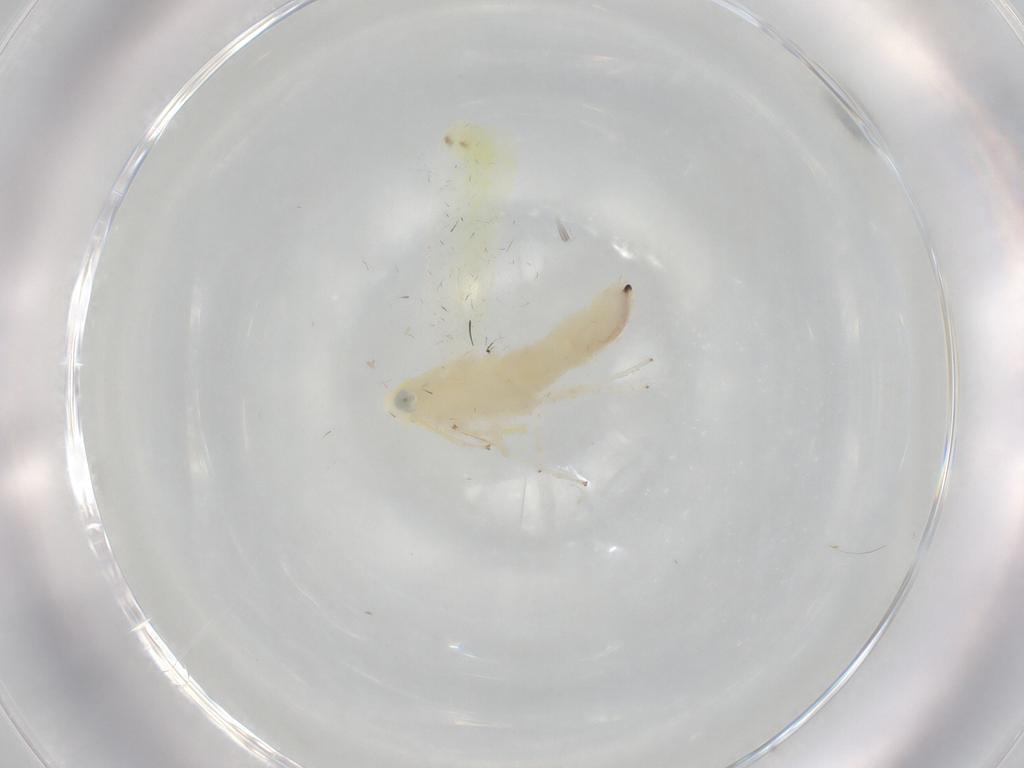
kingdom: Animalia
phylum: Arthropoda
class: Insecta
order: Hemiptera
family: Cicadellidae
